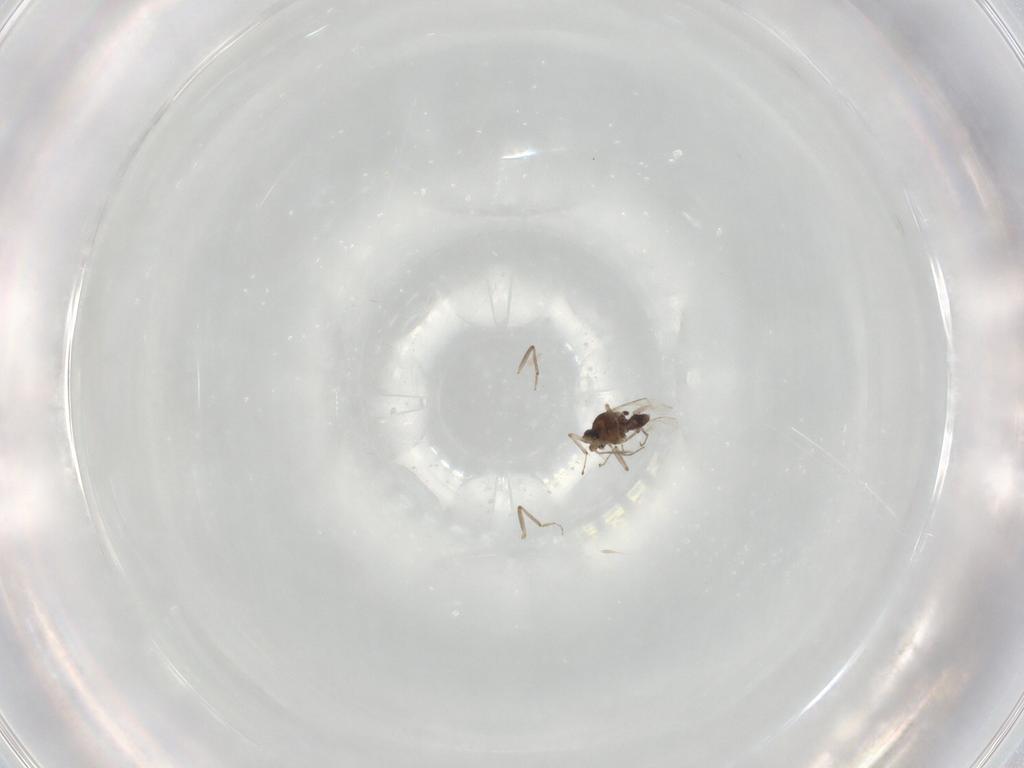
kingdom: Animalia
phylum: Arthropoda
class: Insecta
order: Diptera
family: Ceratopogonidae
